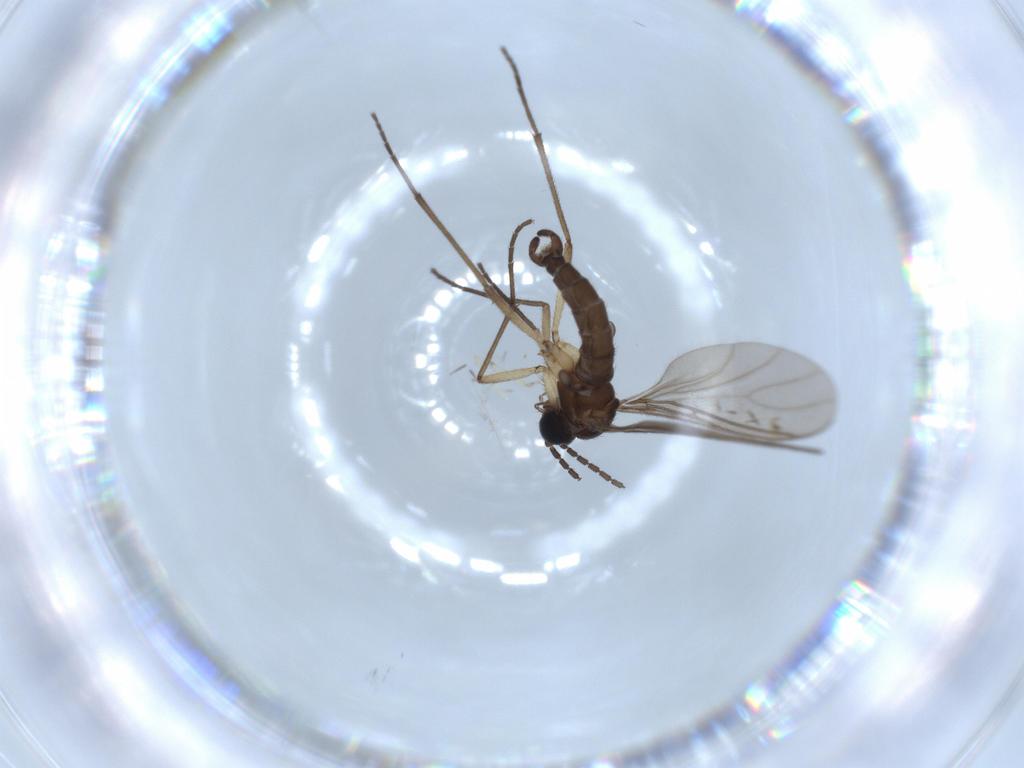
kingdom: Animalia
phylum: Arthropoda
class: Insecta
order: Diptera
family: Sciaridae
